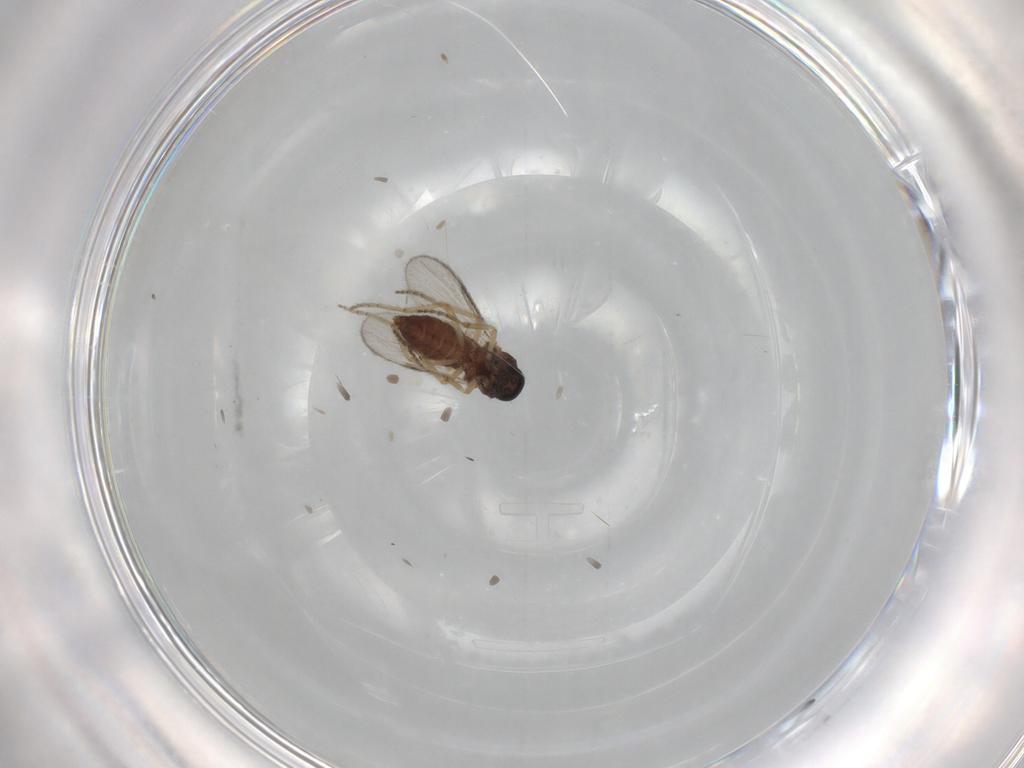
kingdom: Animalia
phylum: Arthropoda
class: Insecta
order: Diptera
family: Ceratopogonidae
